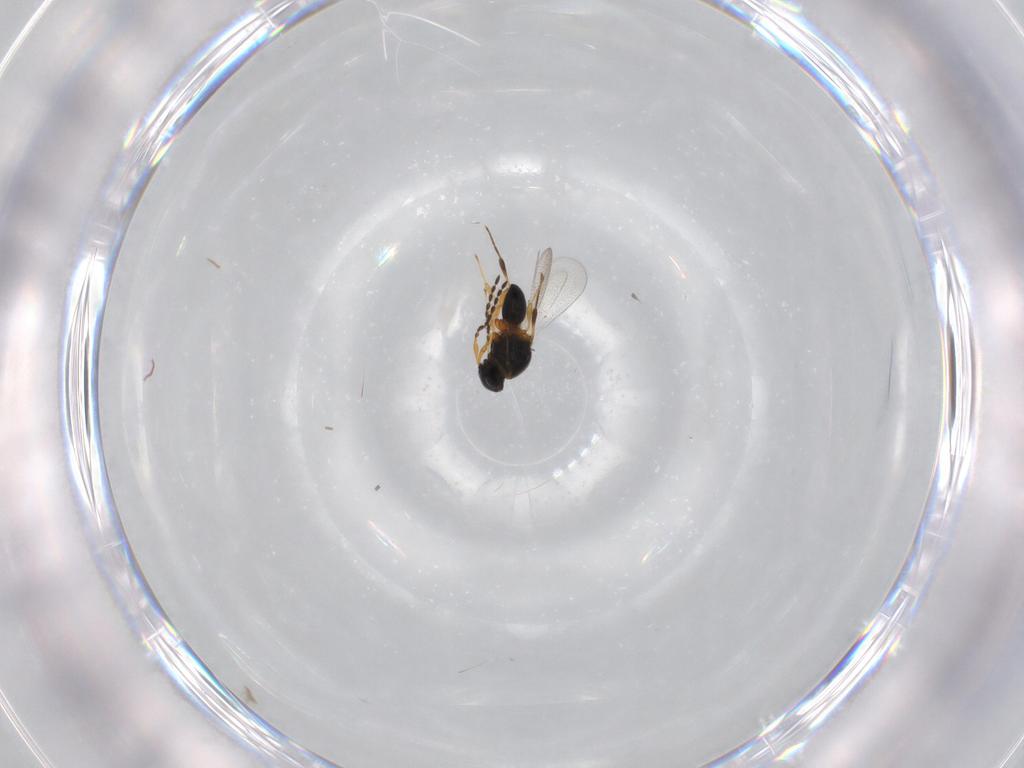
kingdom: Animalia
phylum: Arthropoda
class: Insecta
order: Hymenoptera
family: Platygastridae
